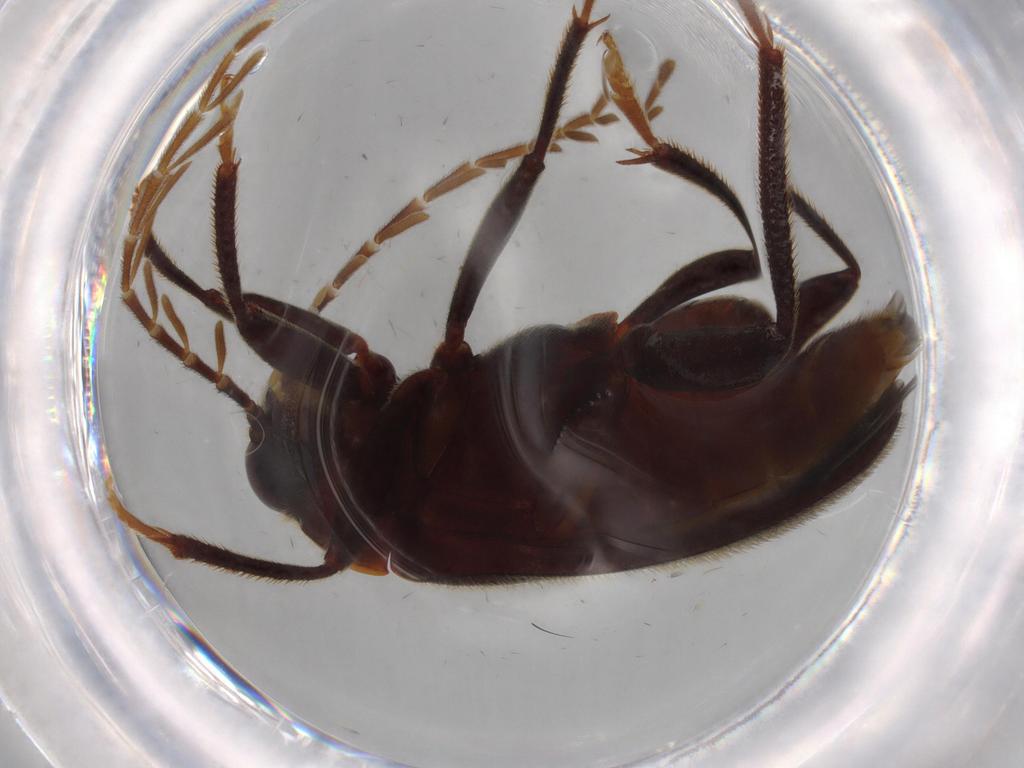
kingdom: Animalia
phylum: Arthropoda
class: Insecta
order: Coleoptera
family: Ptilodactylidae
